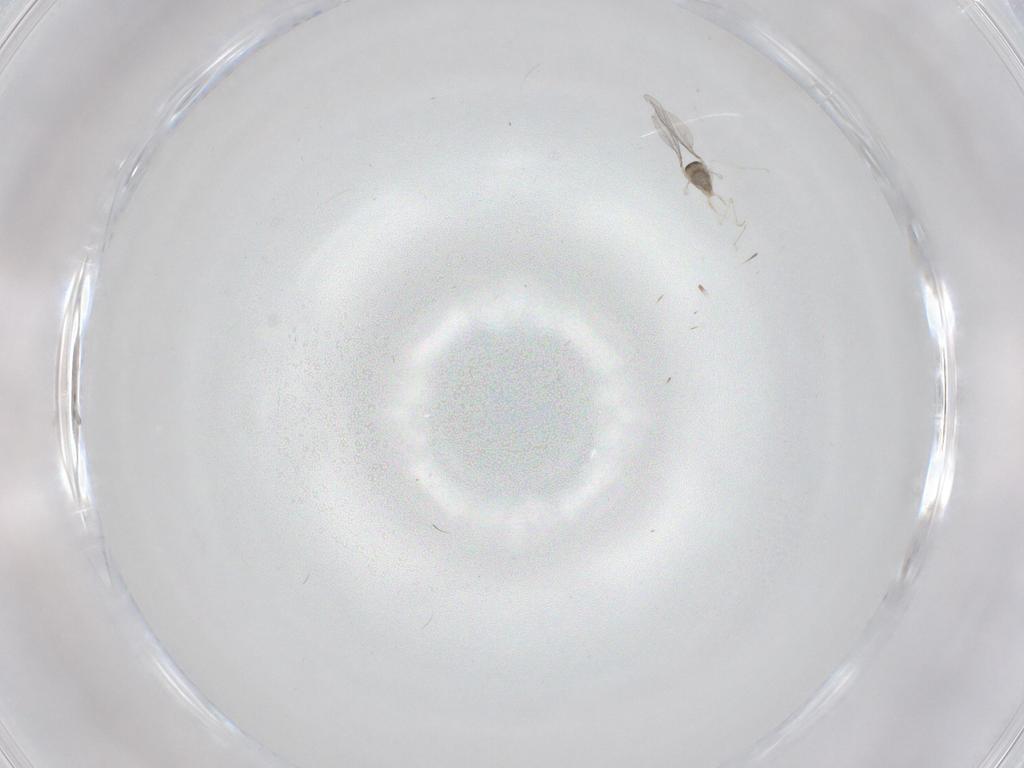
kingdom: Animalia
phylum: Arthropoda
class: Insecta
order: Diptera
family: Cecidomyiidae
